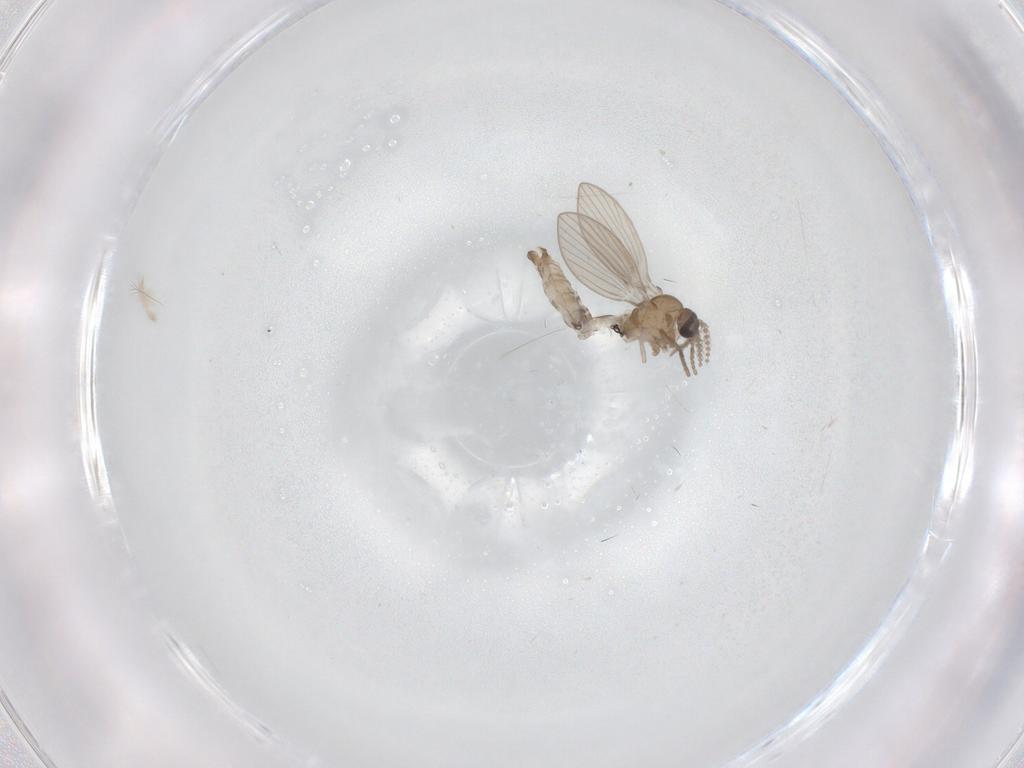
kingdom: Animalia
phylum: Arthropoda
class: Insecta
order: Diptera
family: Psychodidae
